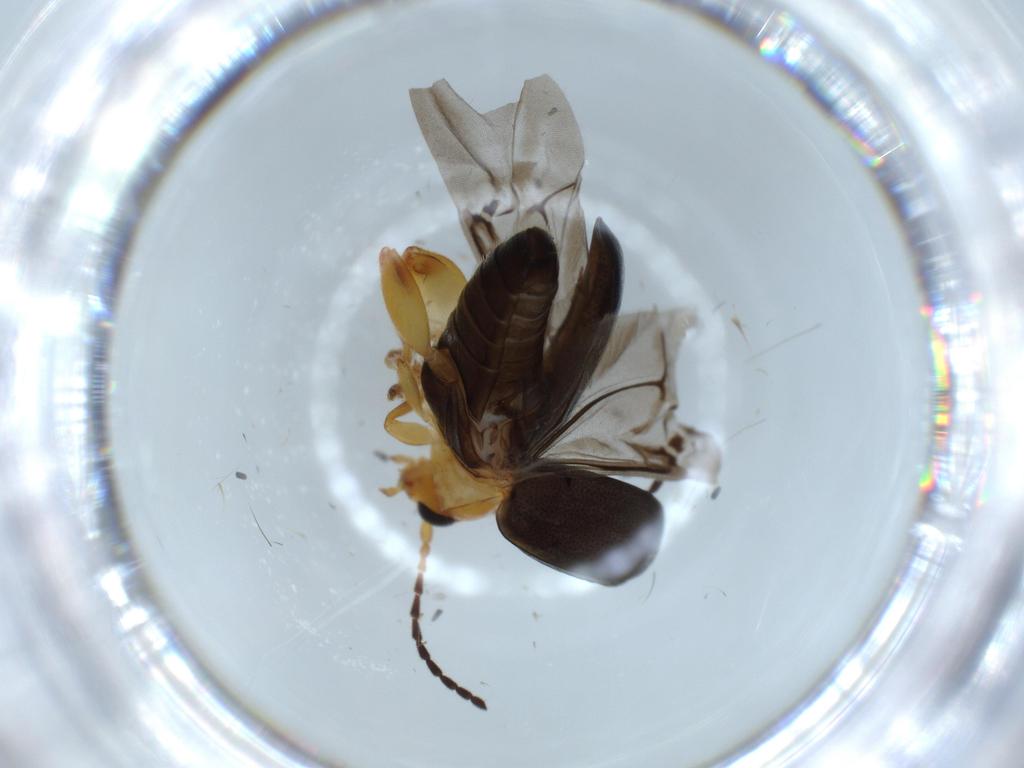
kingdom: Animalia
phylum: Arthropoda
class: Insecta
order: Coleoptera
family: Chrysomelidae
